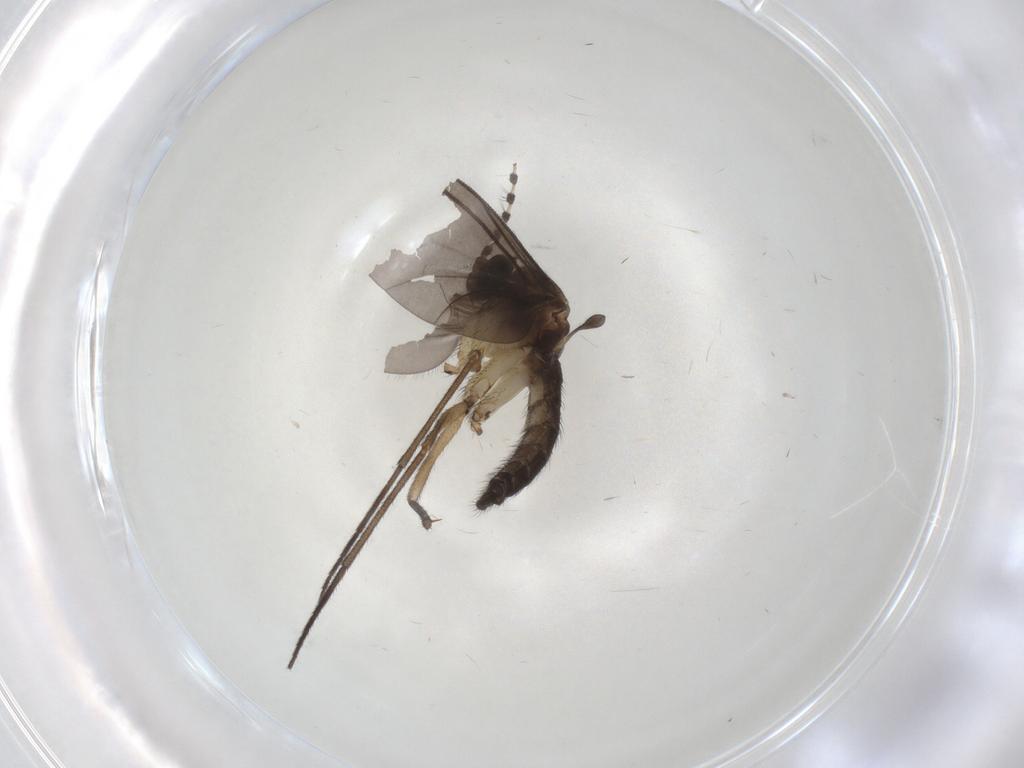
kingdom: Animalia
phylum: Arthropoda
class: Insecta
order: Diptera
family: Sciaridae
